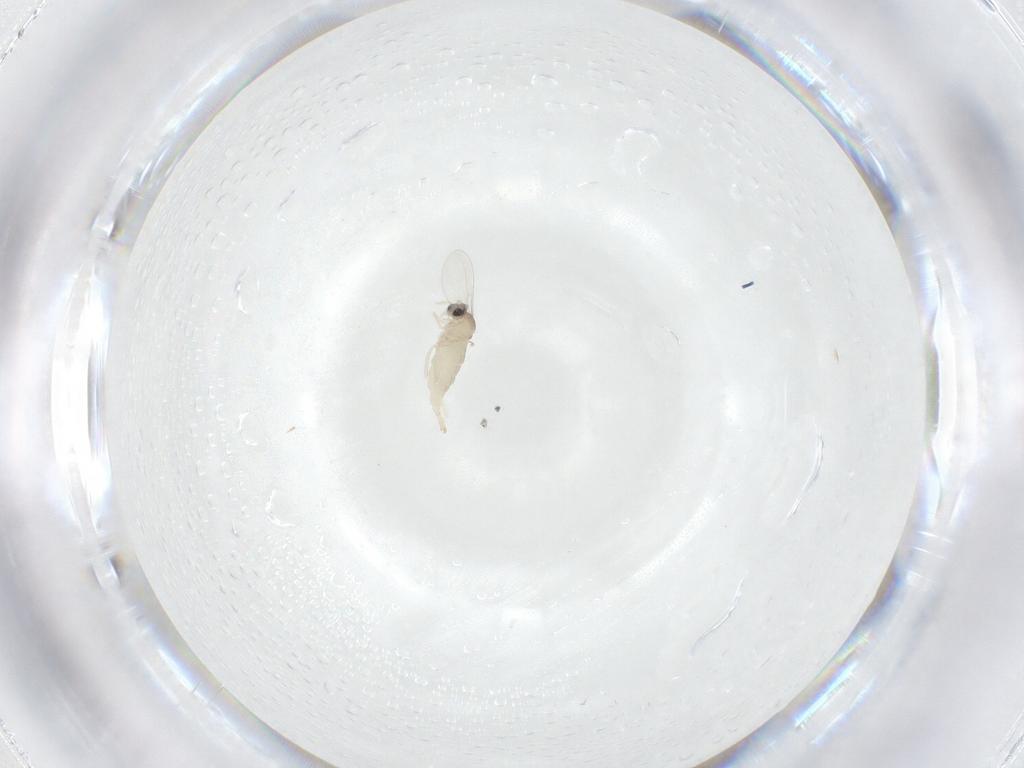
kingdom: Animalia
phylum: Arthropoda
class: Insecta
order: Diptera
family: Cecidomyiidae
